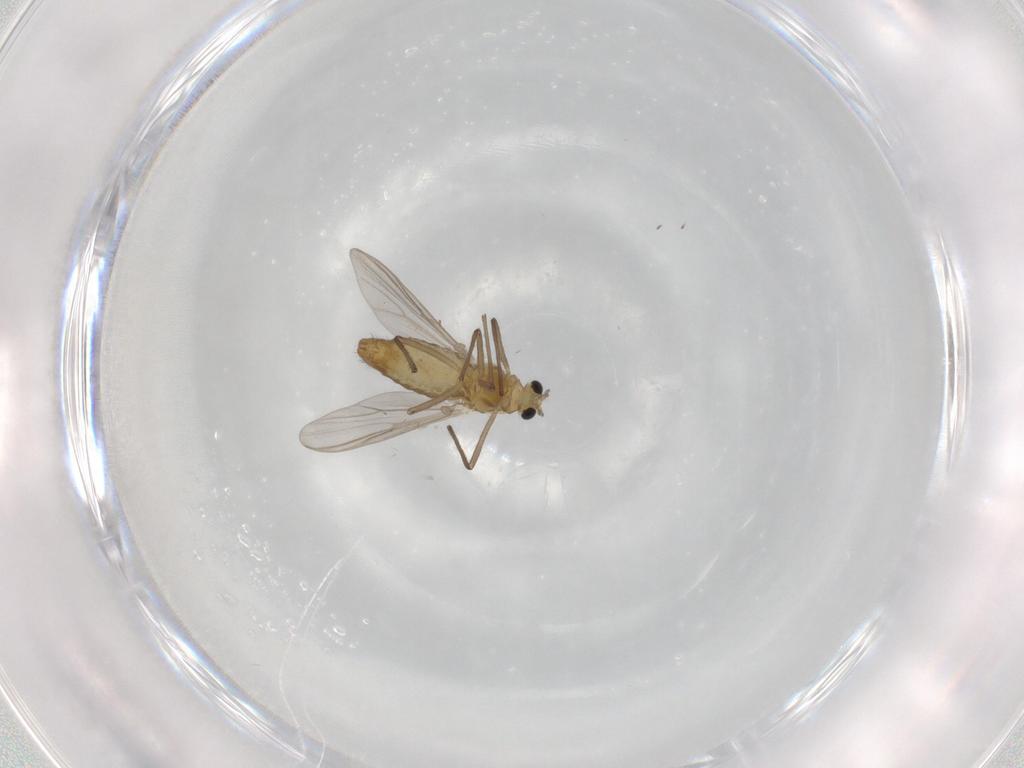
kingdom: Animalia
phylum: Arthropoda
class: Insecta
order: Diptera
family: Chironomidae
